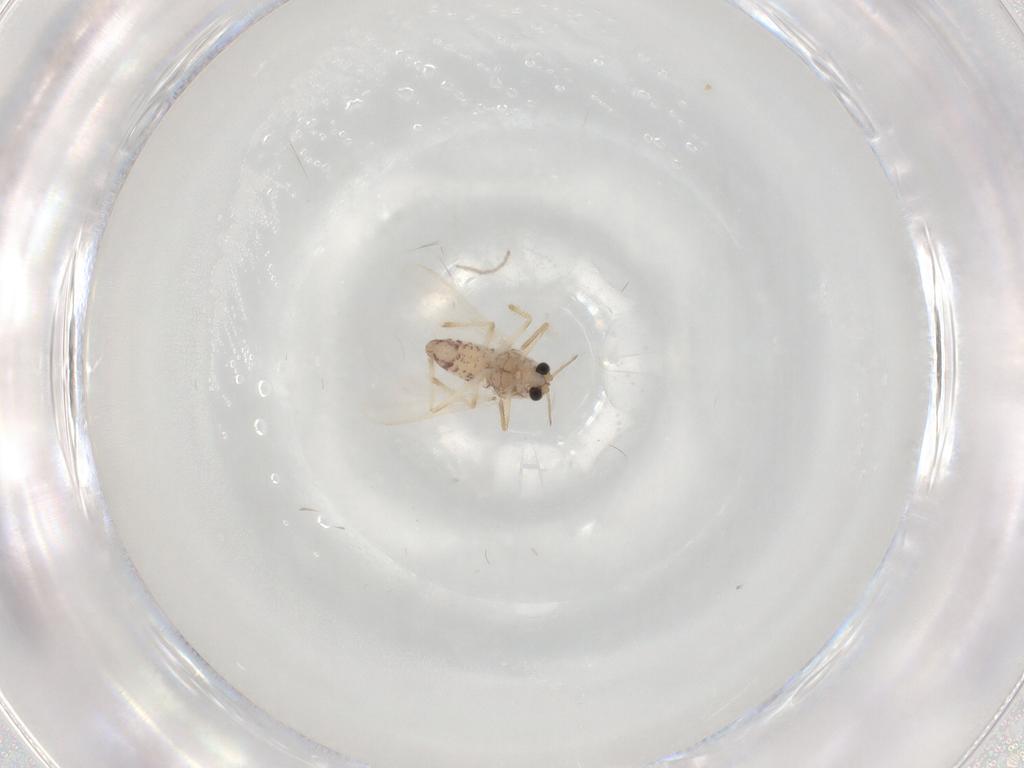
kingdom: Animalia
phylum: Arthropoda
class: Insecta
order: Diptera
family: Chironomidae
